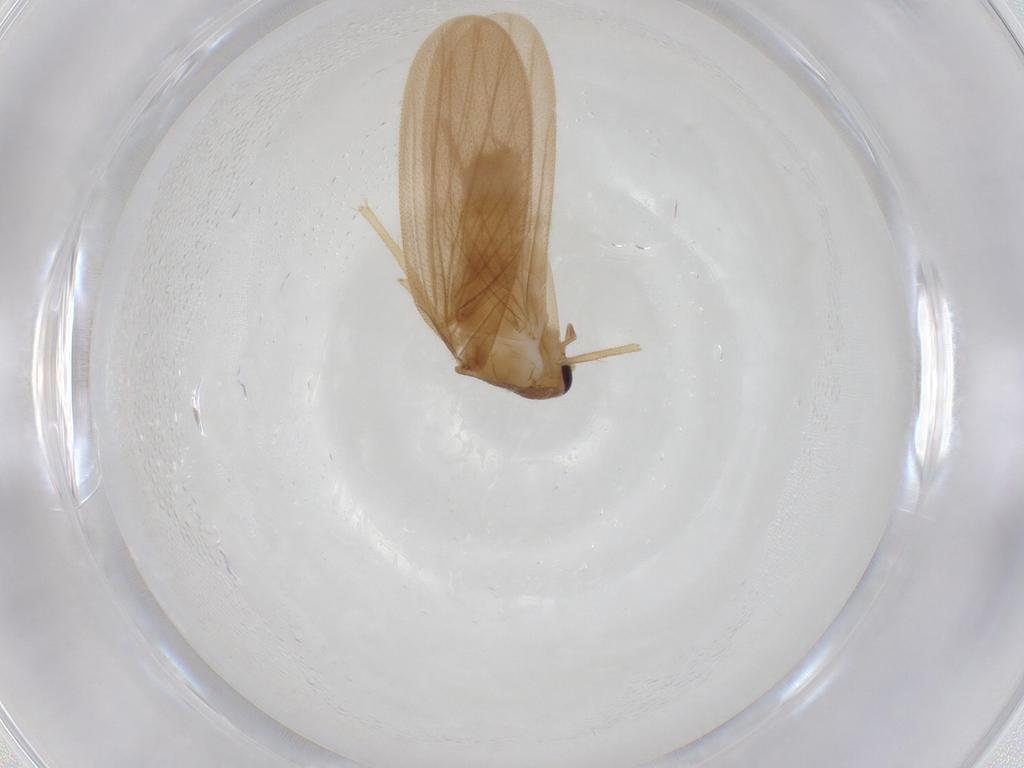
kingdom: Animalia
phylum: Arthropoda
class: Insecta
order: Blattodea
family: Nocticolidae
